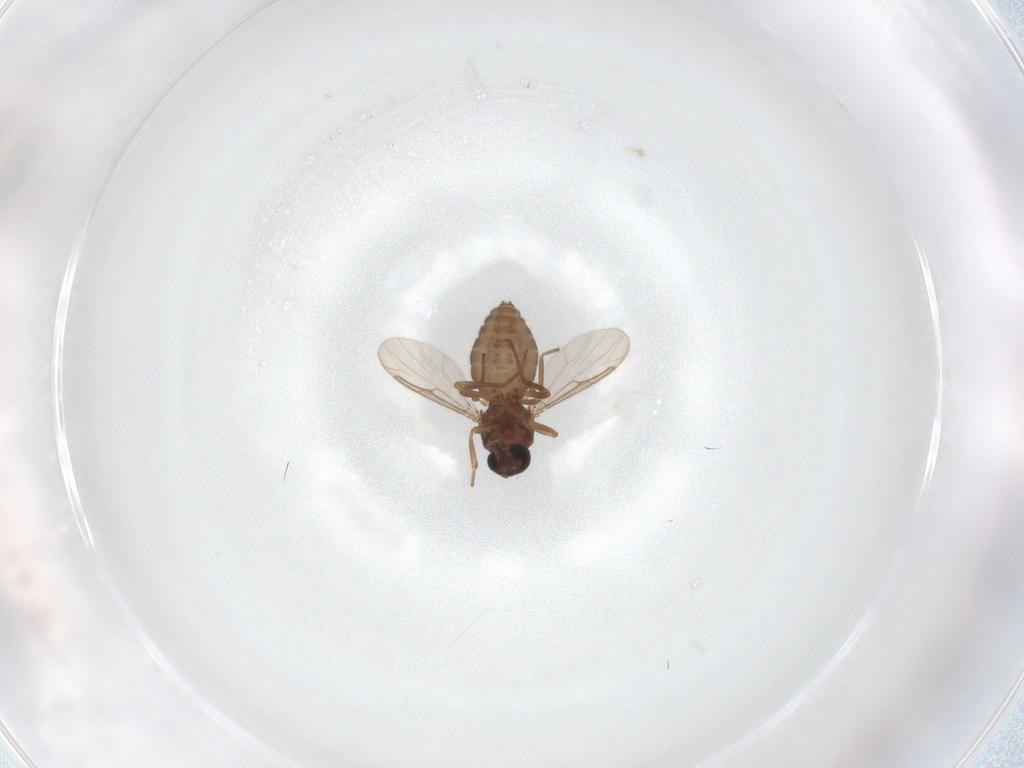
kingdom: Animalia
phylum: Arthropoda
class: Insecta
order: Diptera
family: Ceratopogonidae
